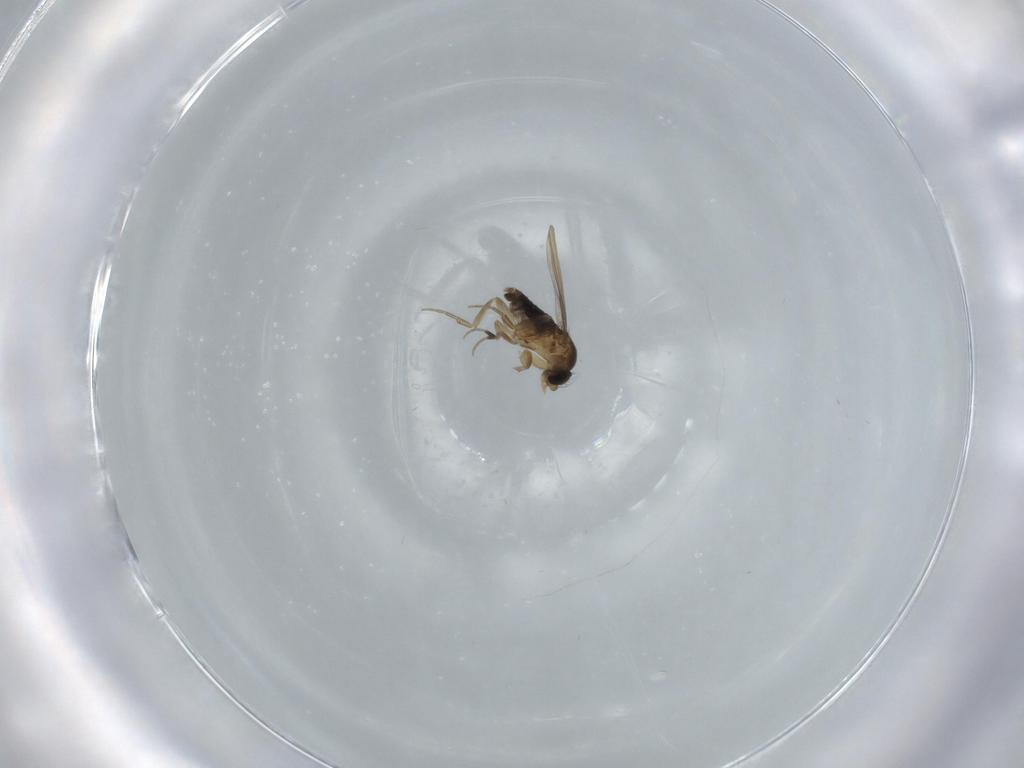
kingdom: Animalia
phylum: Arthropoda
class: Insecta
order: Diptera
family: Phoridae
